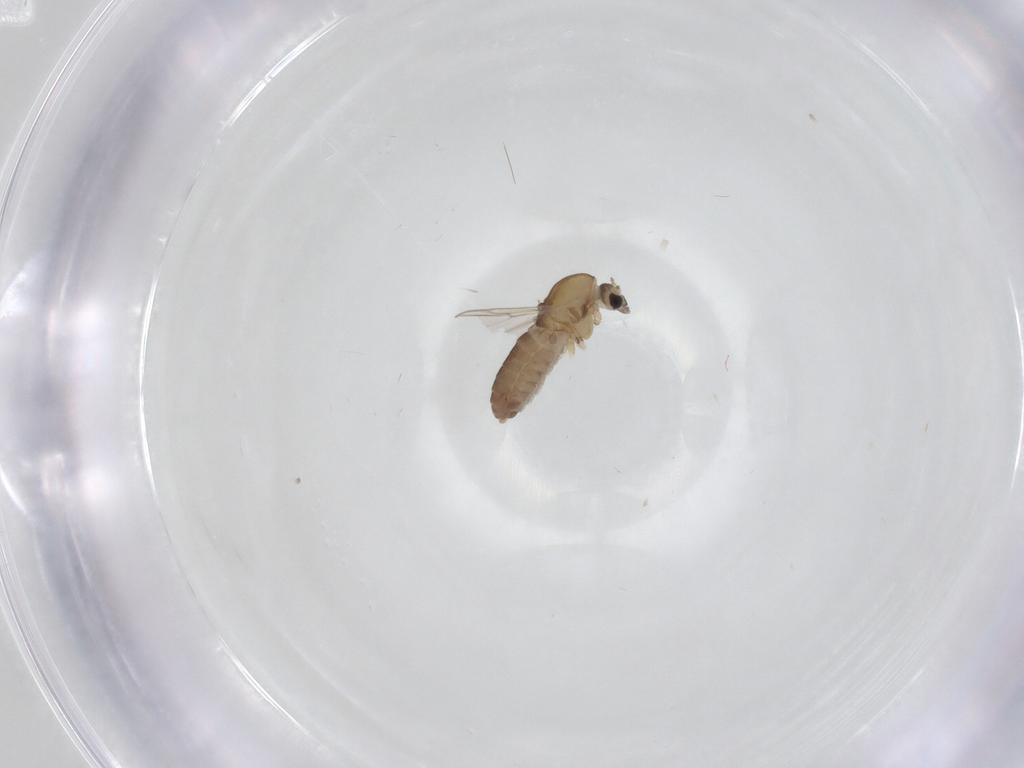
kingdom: Animalia
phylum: Arthropoda
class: Insecta
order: Diptera
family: Chironomidae
